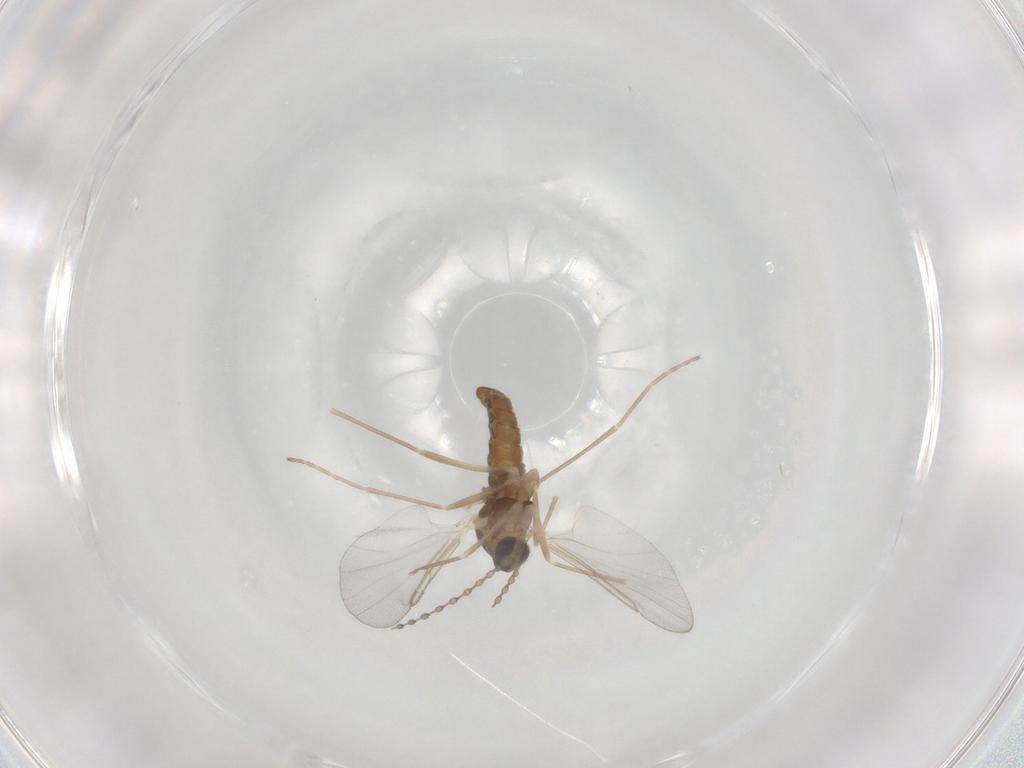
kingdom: Animalia
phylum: Arthropoda
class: Insecta
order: Diptera
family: Cecidomyiidae
